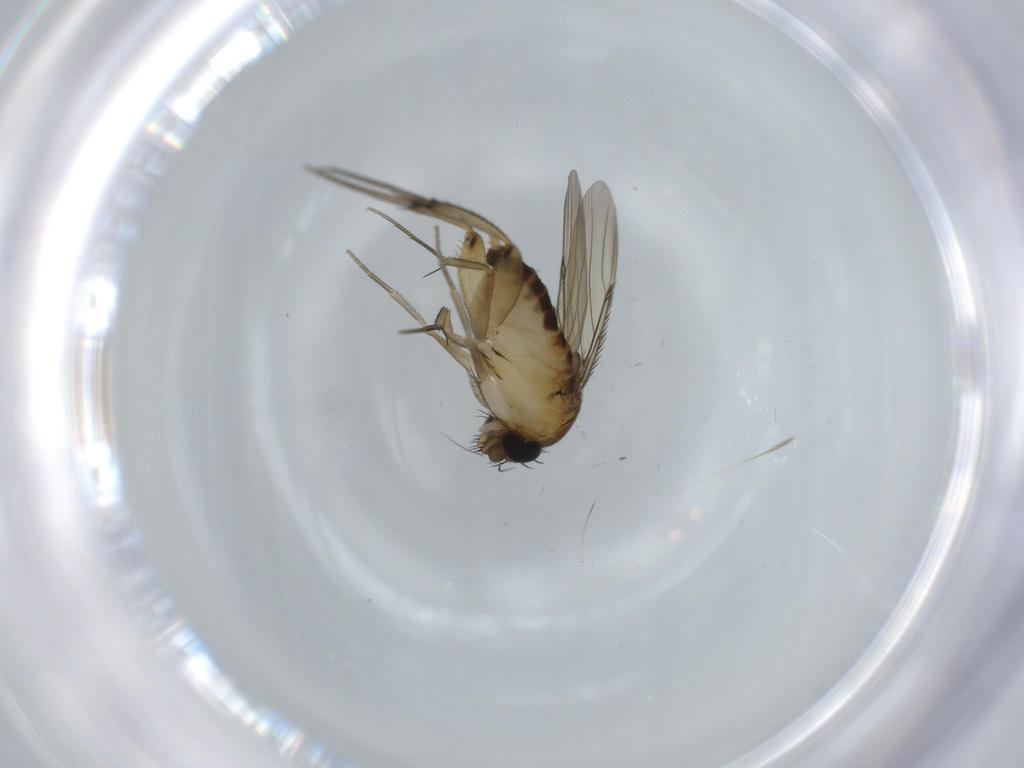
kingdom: Animalia
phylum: Arthropoda
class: Insecta
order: Diptera
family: Phoridae
